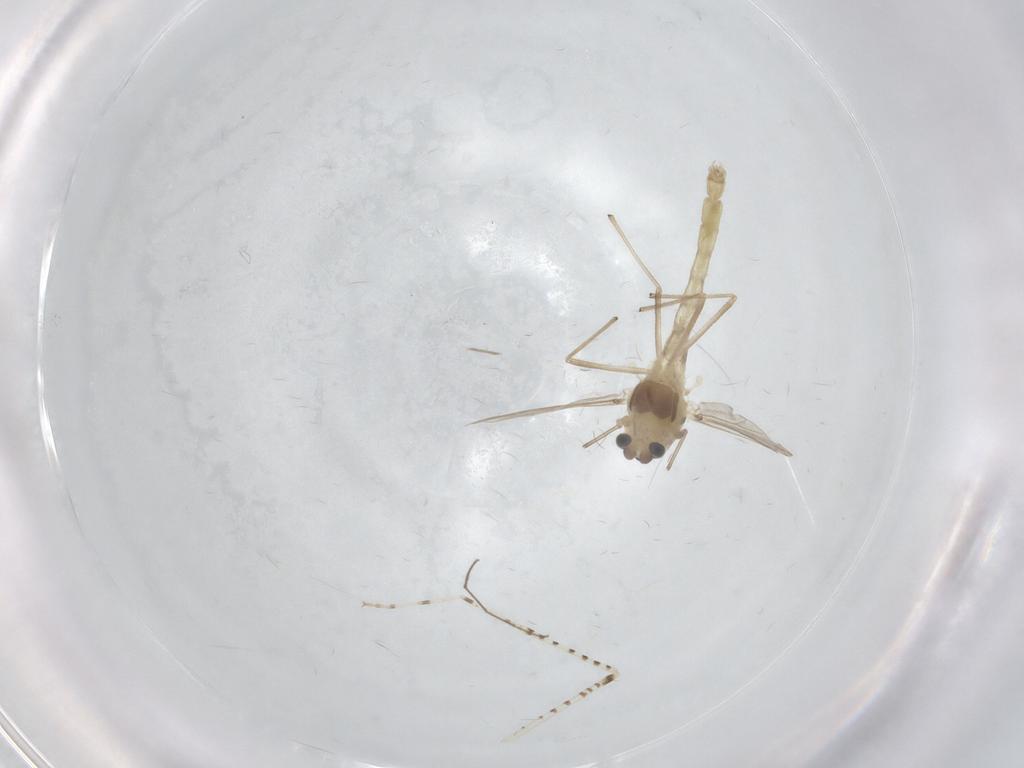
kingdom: Animalia
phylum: Arthropoda
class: Insecta
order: Diptera
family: Chironomidae
